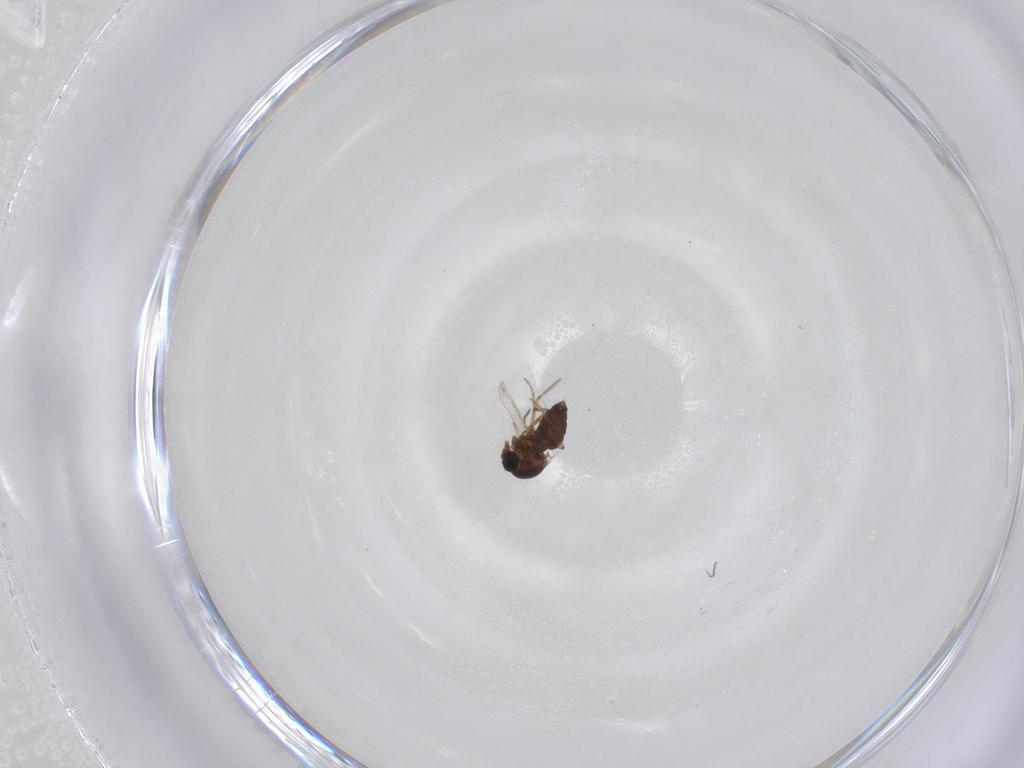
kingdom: Animalia
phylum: Arthropoda
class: Insecta
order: Diptera
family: Ceratopogonidae
